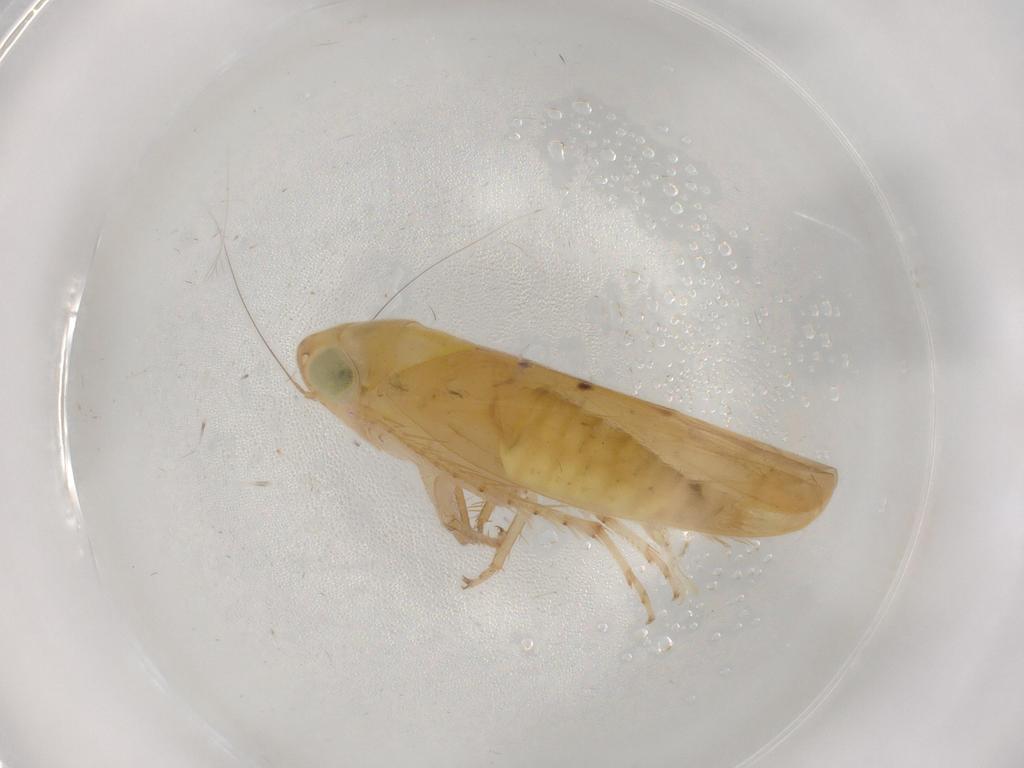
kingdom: Animalia
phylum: Arthropoda
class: Insecta
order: Hemiptera
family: Cicadellidae
